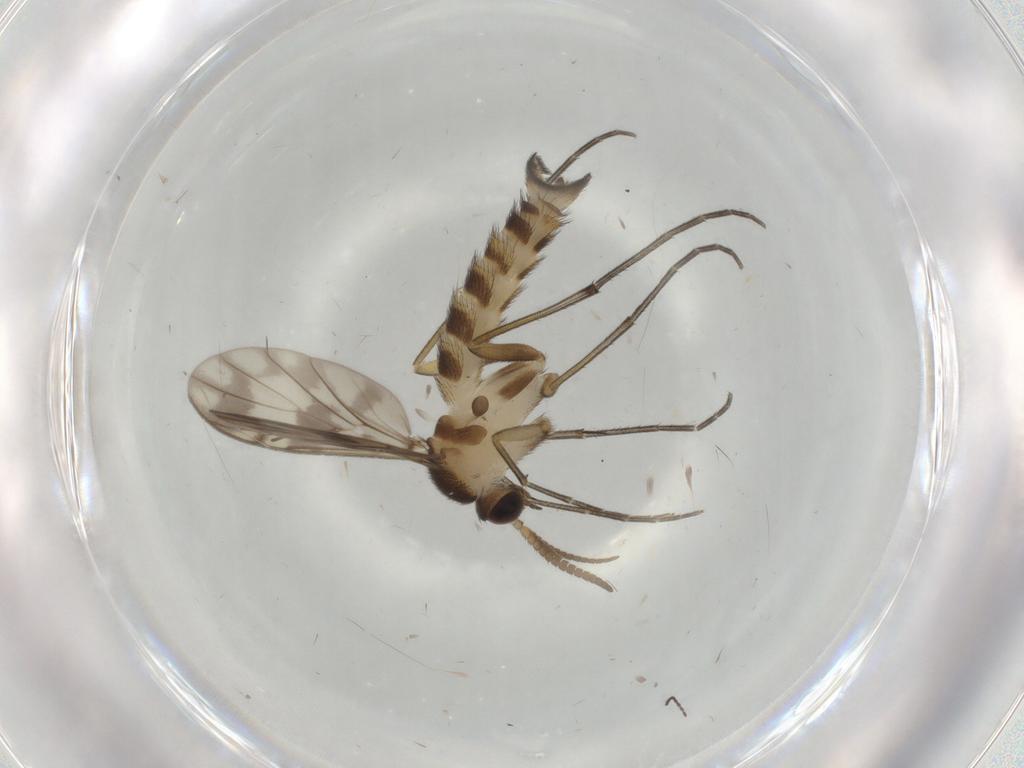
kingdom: Animalia
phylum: Arthropoda
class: Insecta
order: Diptera
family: Keroplatidae
